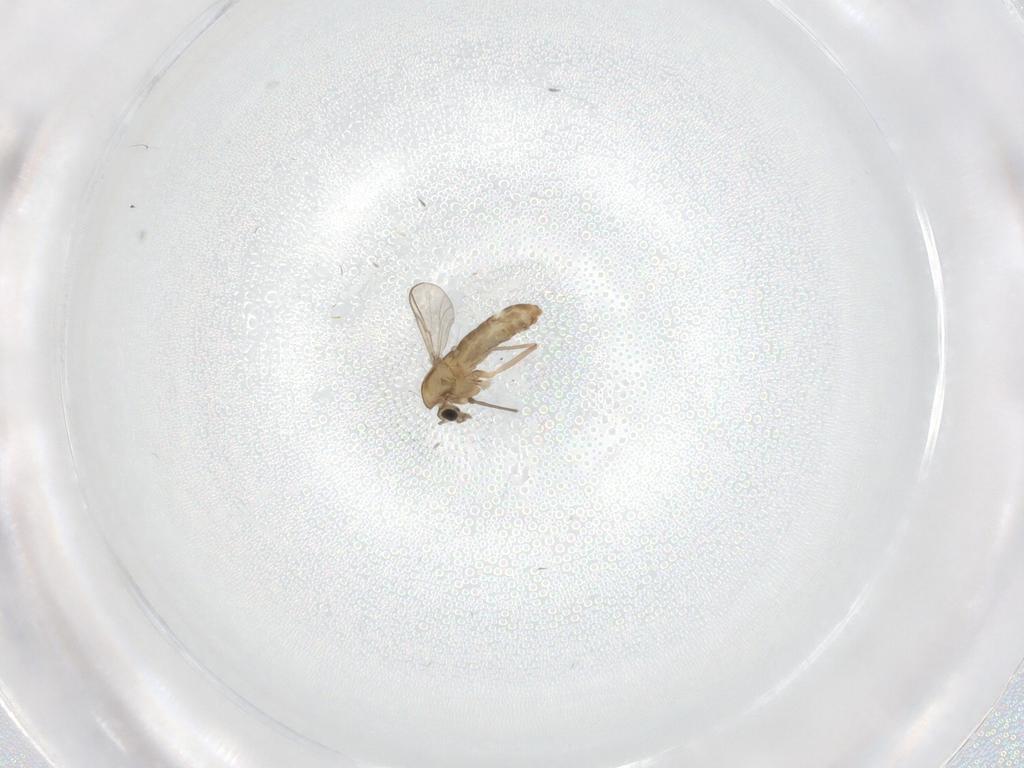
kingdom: Animalia
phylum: Arthropoda
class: Insecta
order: Diptera
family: Chironomidae
